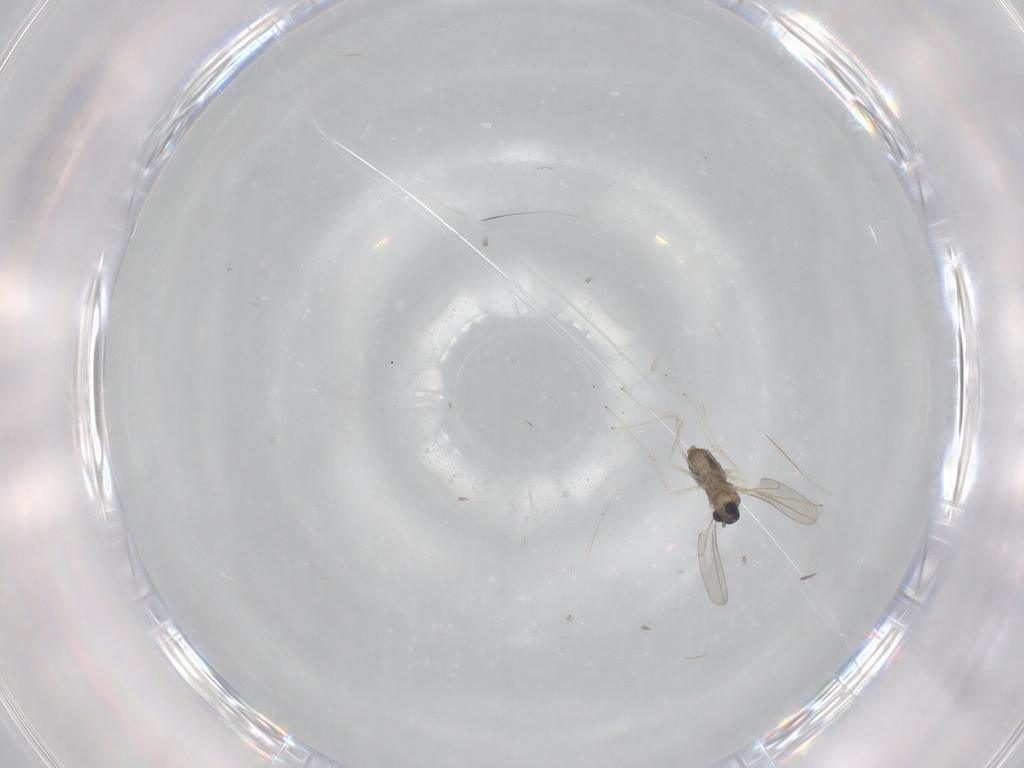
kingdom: Animalia
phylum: Arthropoda
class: Insecta
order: Diptera
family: Cecidomyiidae
